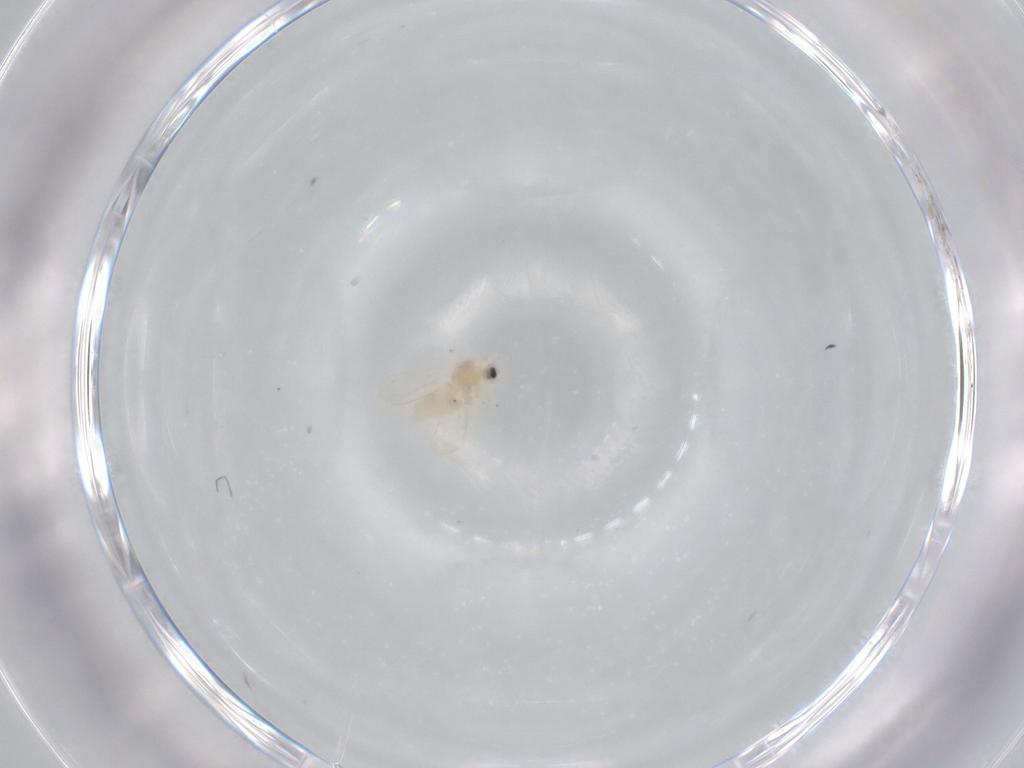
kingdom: Animalia
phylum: Arthropoda
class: Insecta
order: Hemiptera
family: Aleyrodidae
